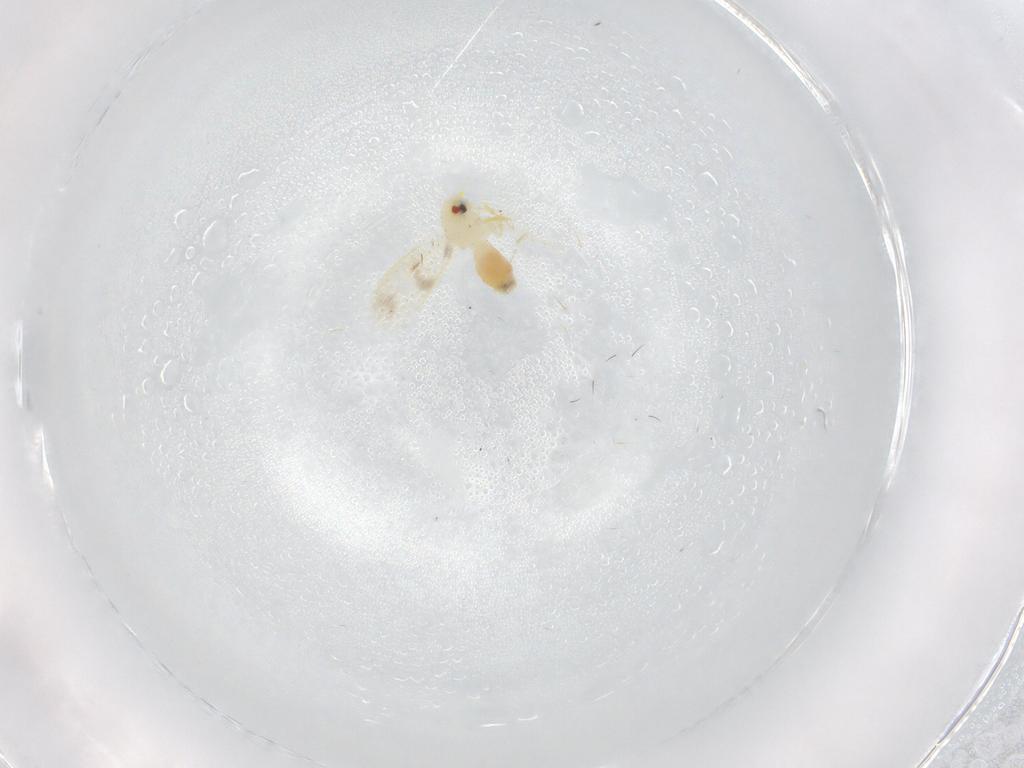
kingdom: Animalia
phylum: Arthropoda
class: Insecta
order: Hemiptera
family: Aleyrodidae
